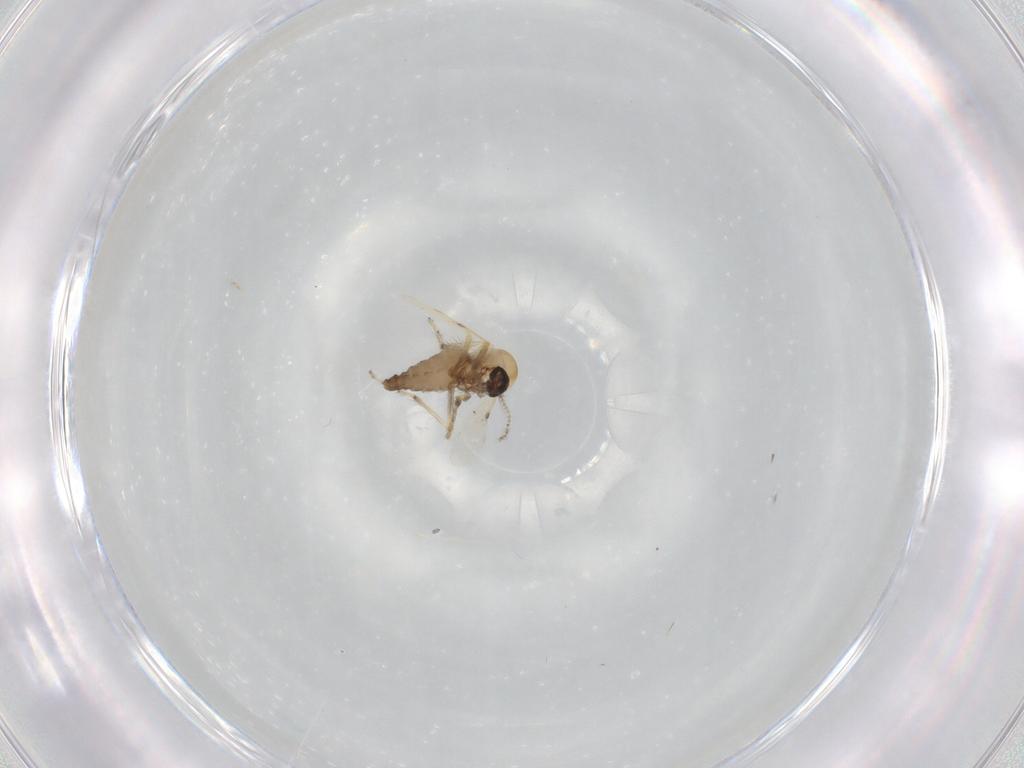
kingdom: Animalia
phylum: Arthropoda
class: Insecta
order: Diptera
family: Ceratopogonidae
